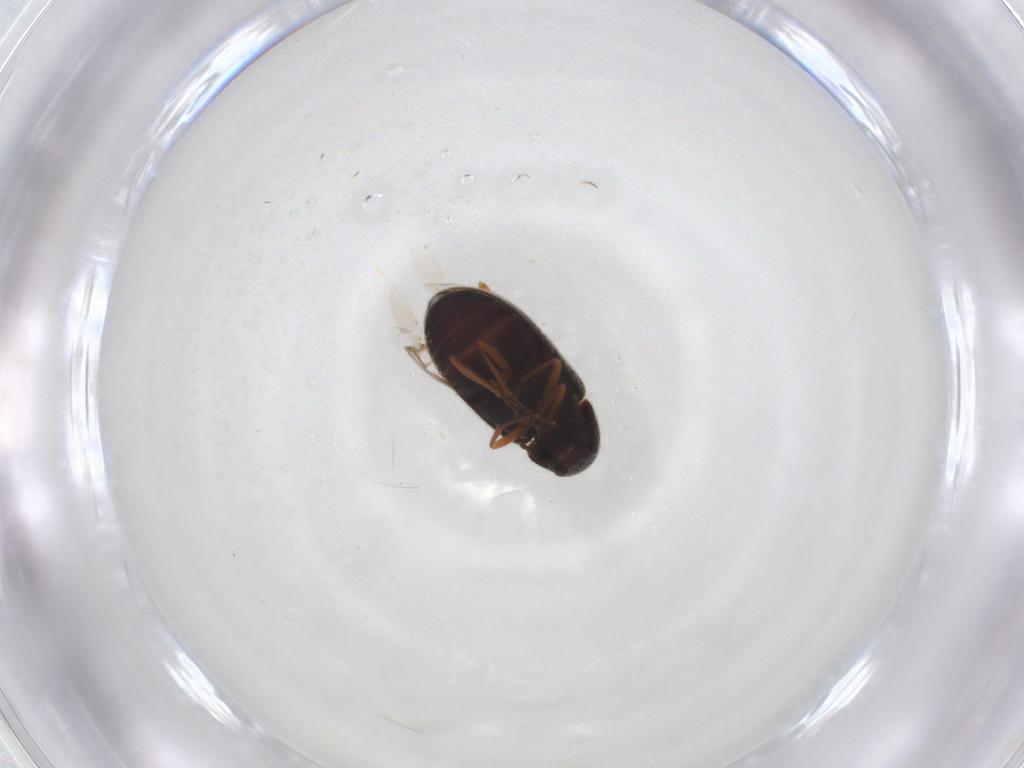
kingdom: Animalia
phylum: Arthropoda
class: Insecta
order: Coleoptera
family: Rhadalidae
